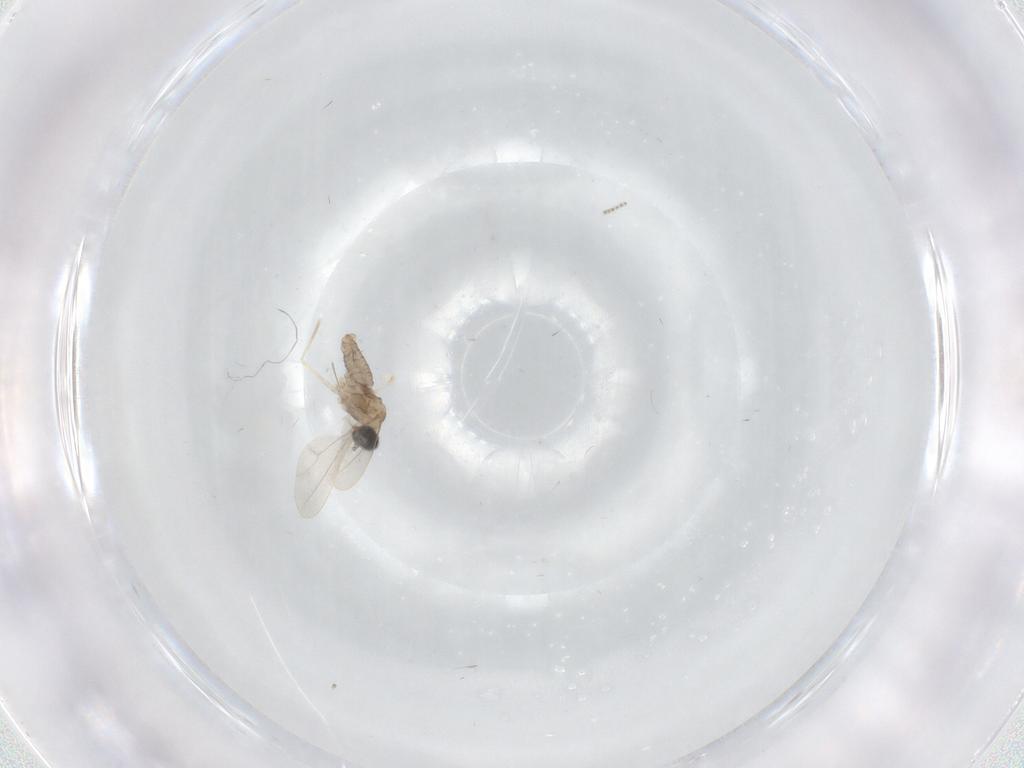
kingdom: Animalia
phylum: Arthropoda
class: Insecta
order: Diptera
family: Cecidomyiidae
